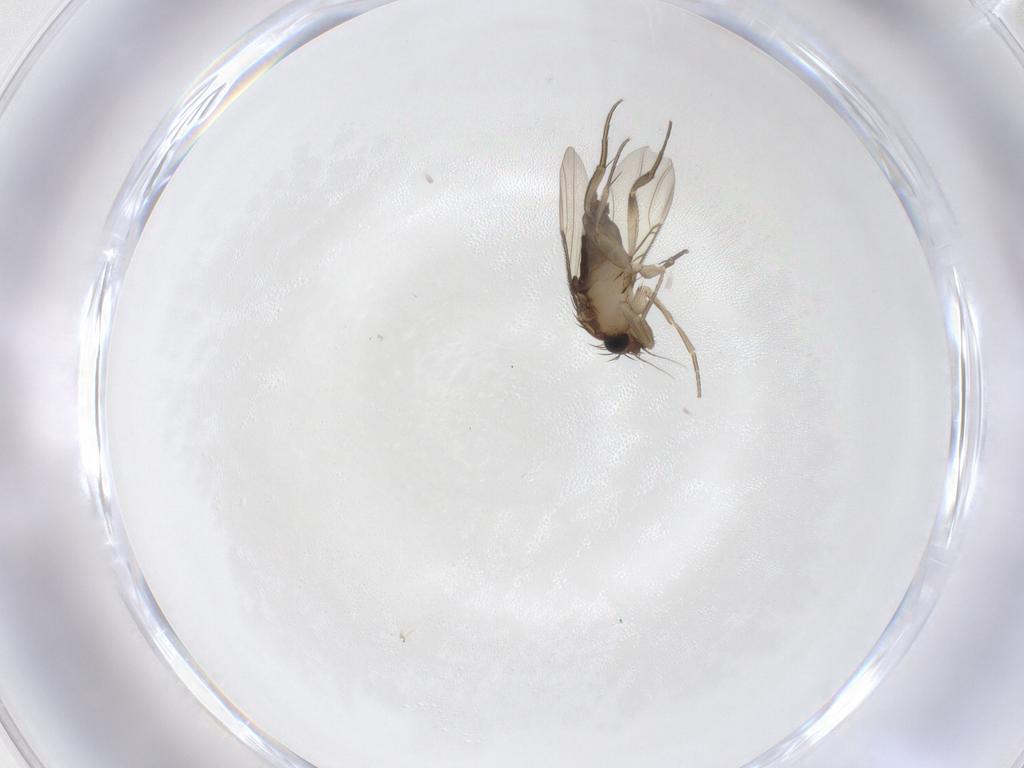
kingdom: Animalia
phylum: Arthropoda
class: Insecta
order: Diptera
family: Phoridae
